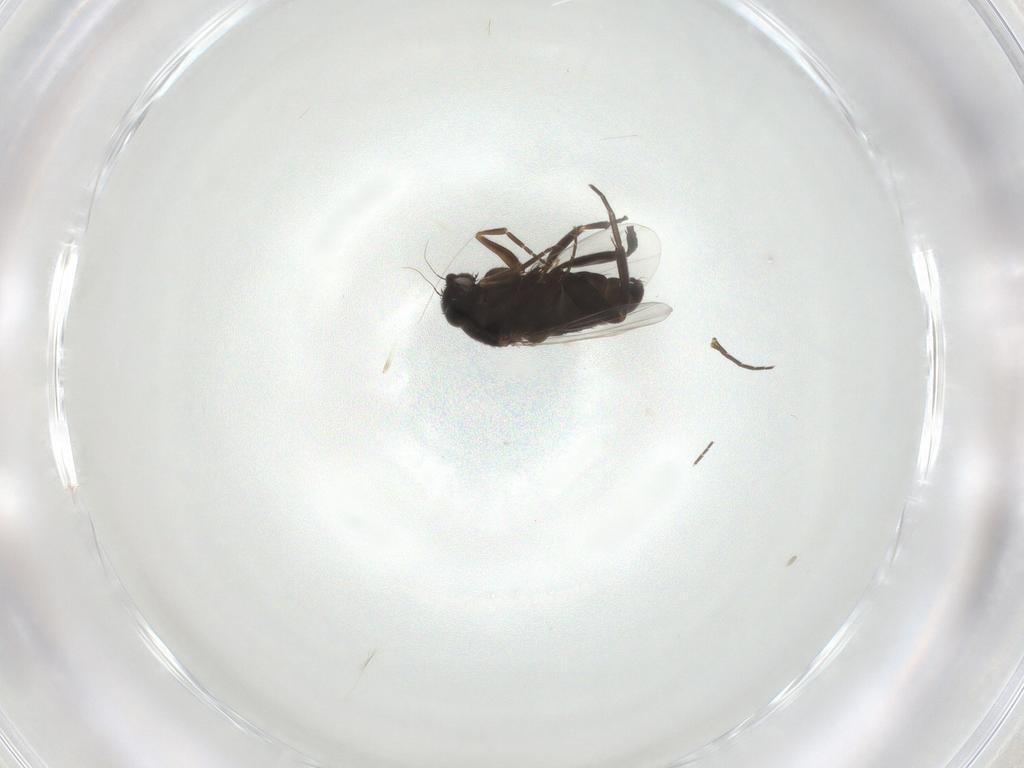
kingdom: Animalia
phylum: Arthropoda
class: Insecta
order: Diptera
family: Phoridae
